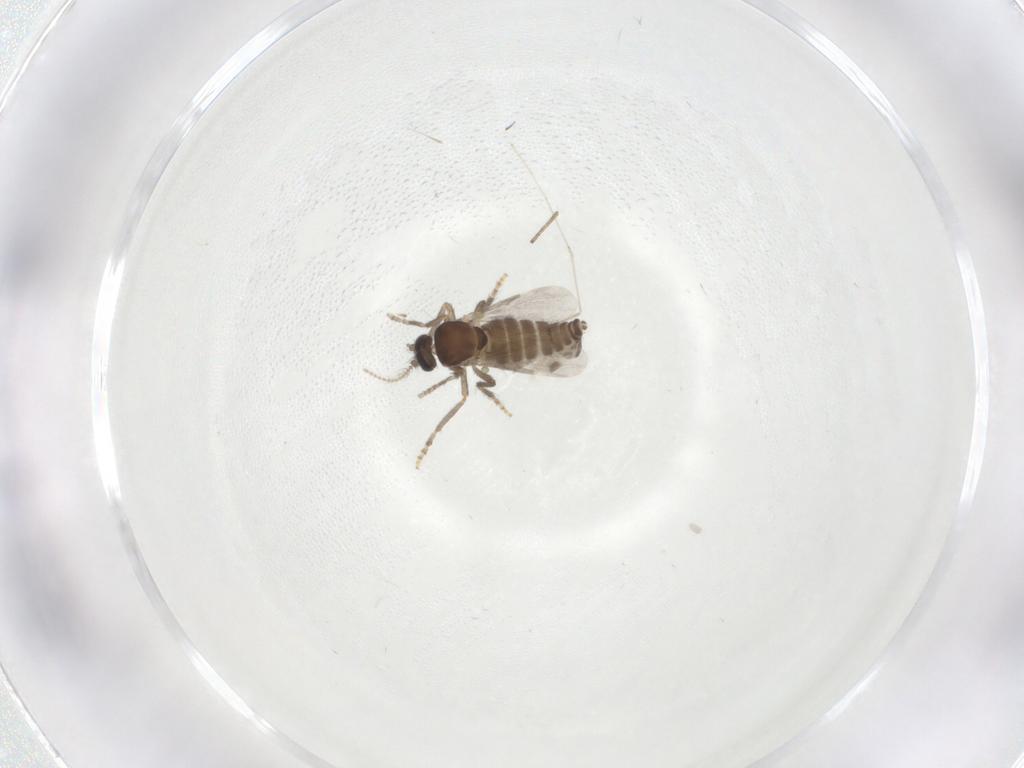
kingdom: Animalia
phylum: Arthropoda
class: Insecta
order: Diptera
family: Ceratopogonidae
